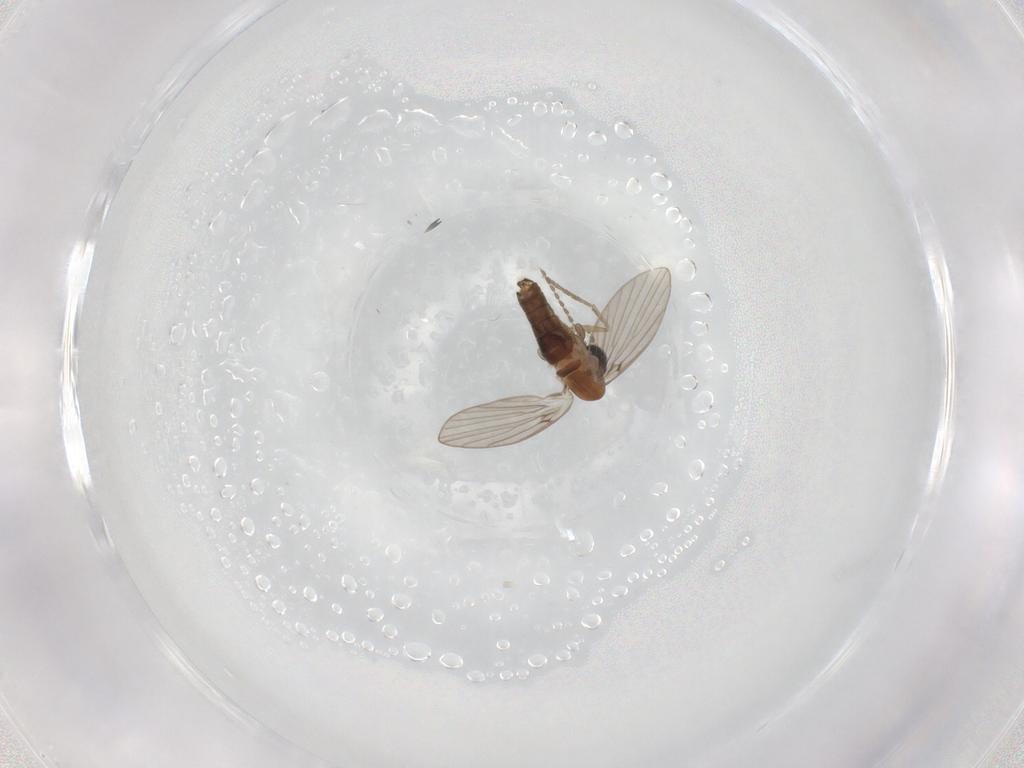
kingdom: Animalia
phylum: Arthropoda
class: Insecta
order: Diptera
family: Psychodidae
